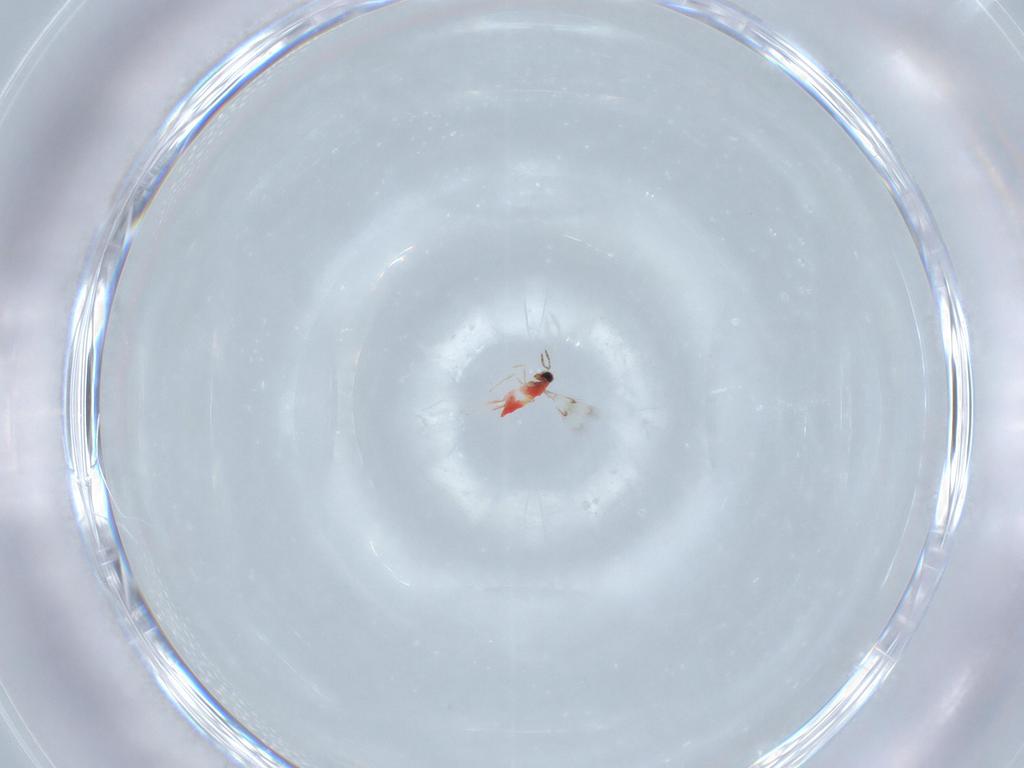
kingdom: Animalia
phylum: Arthropoda
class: Insecta
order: Hymenoptera
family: Trichogrammatidae
